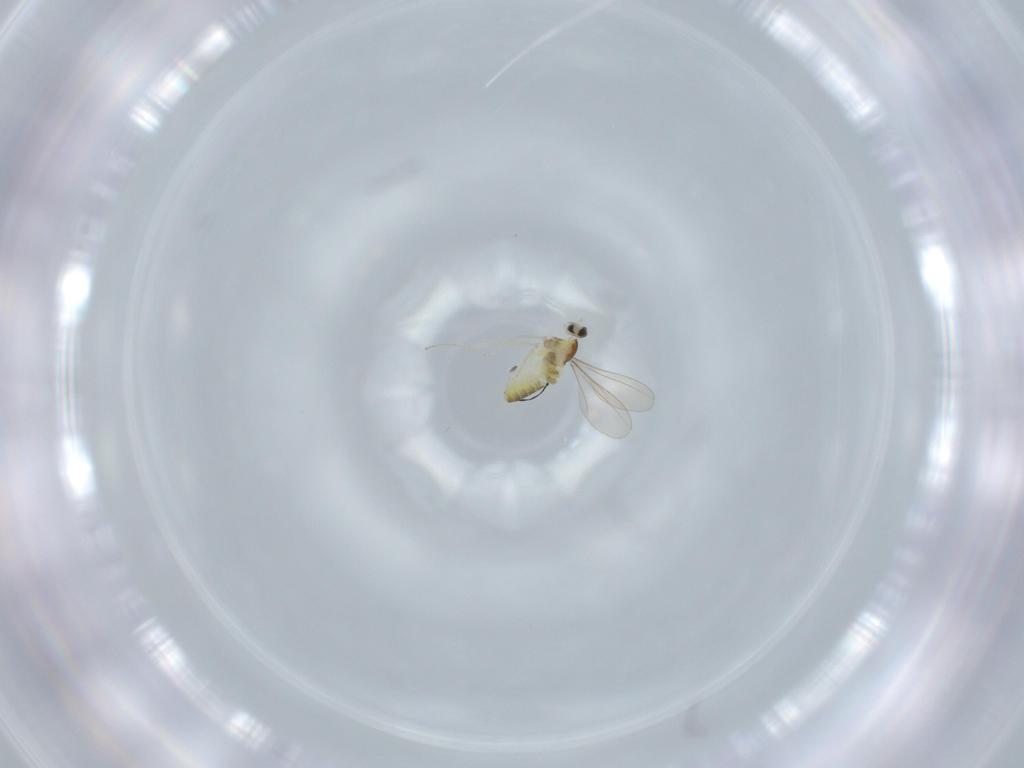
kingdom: Animalia
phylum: Arthropoda
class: Insecta
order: Diptera
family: Cecidomyiidae
